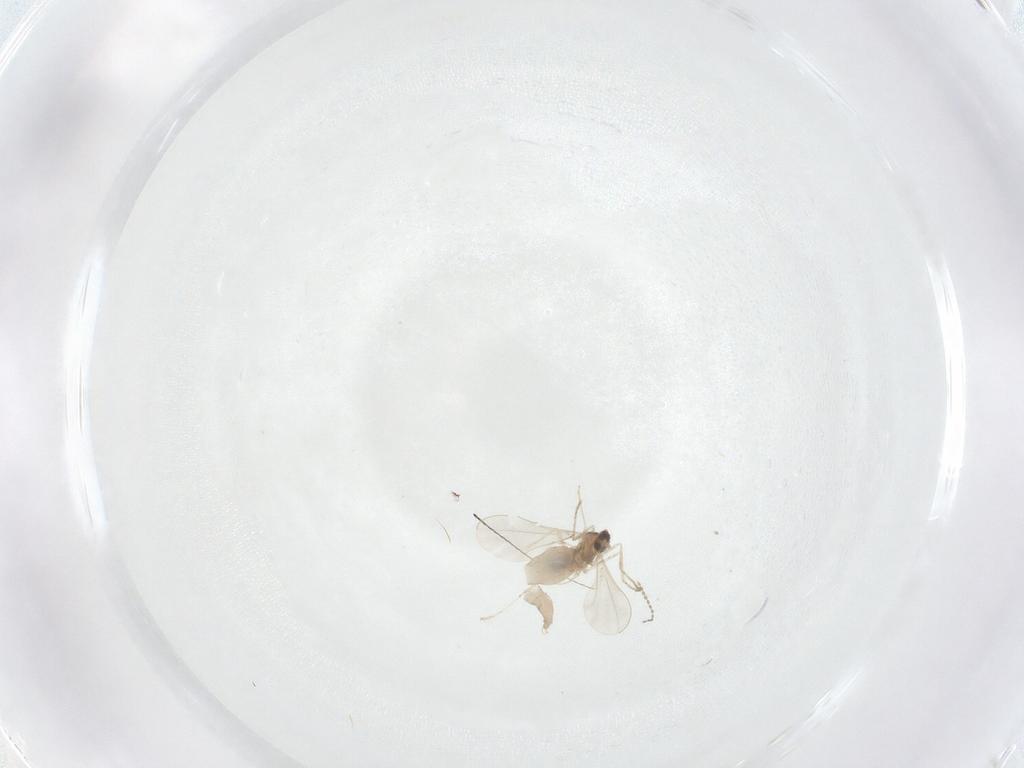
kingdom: Animalia
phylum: Arthropoda
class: Insecta
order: Diptera
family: Cecidomyiidae
